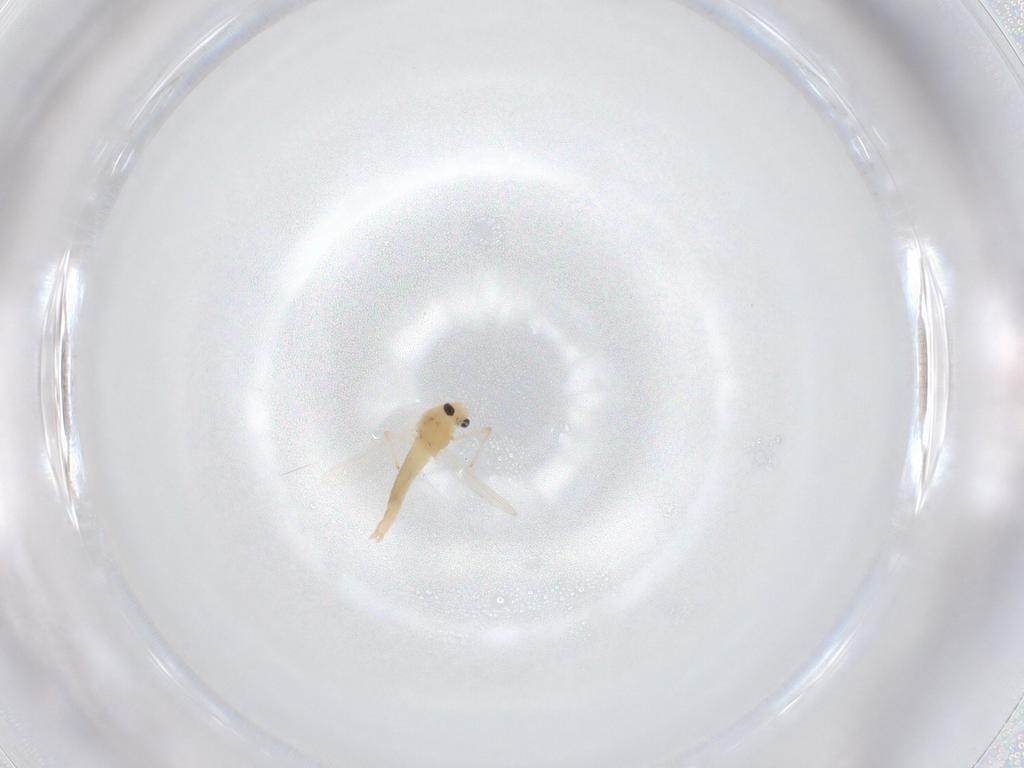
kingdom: Animalia
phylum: Arthropoda
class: Insecta
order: Diptera
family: Chironomidae
